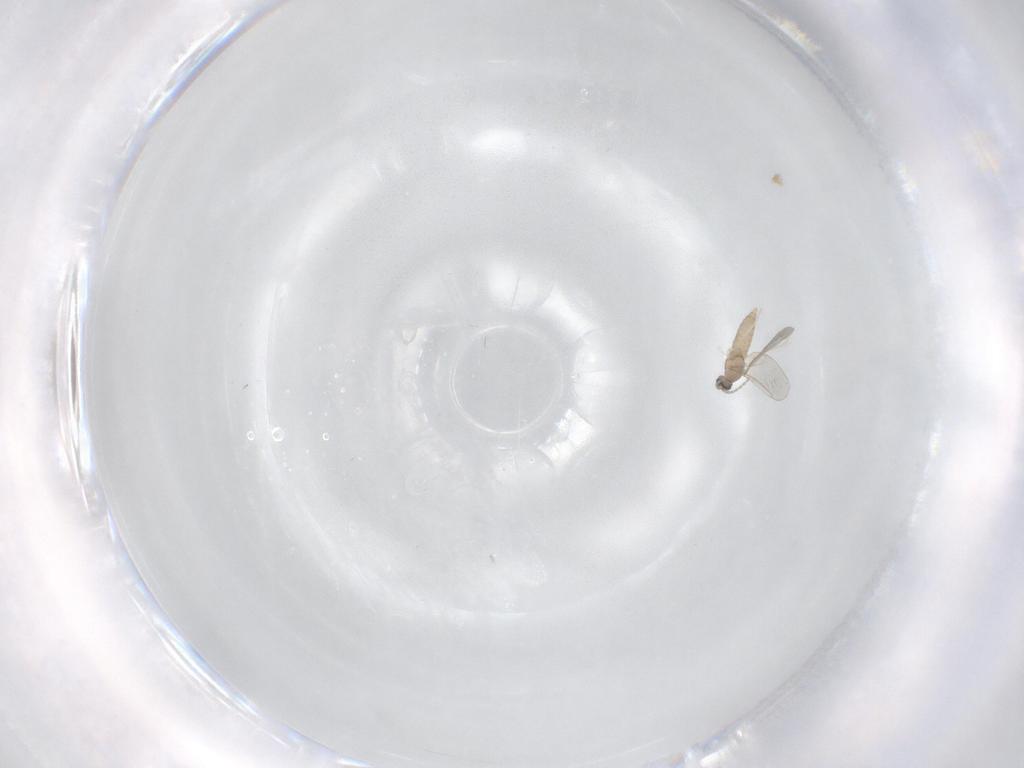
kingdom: Animalia
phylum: Arthropoda
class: Insecta
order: Diptera
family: Cecidomyiidae
